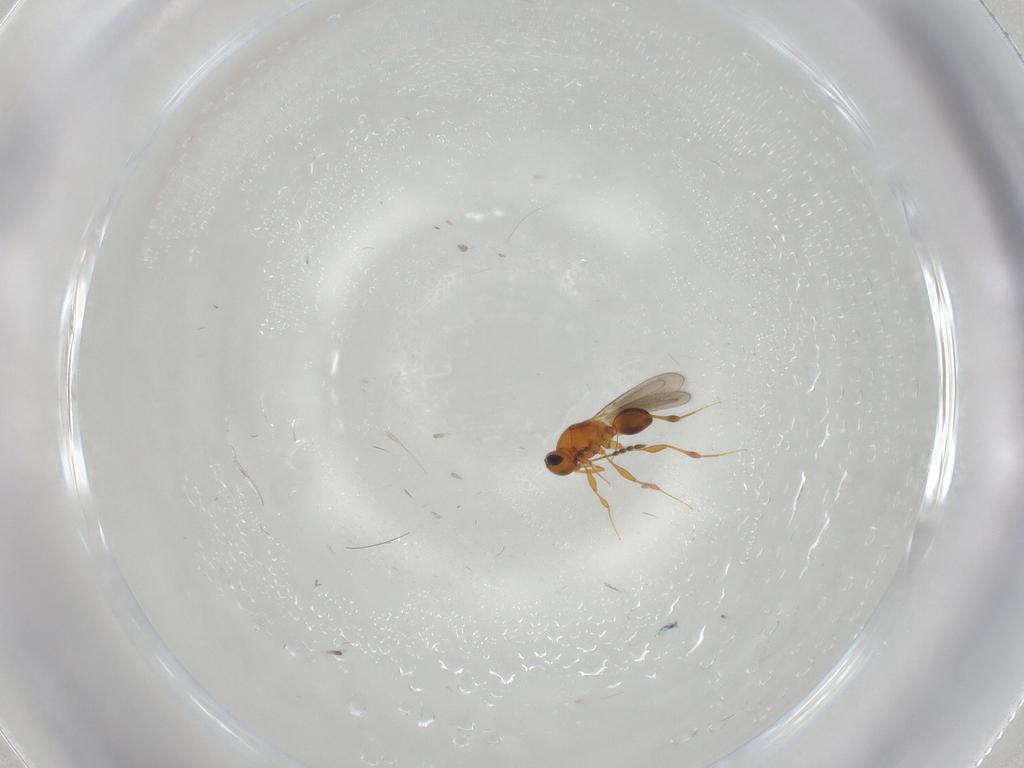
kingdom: Animalia
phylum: Arthropoda
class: Insecta
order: Hymenoptera
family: Platygastridae
